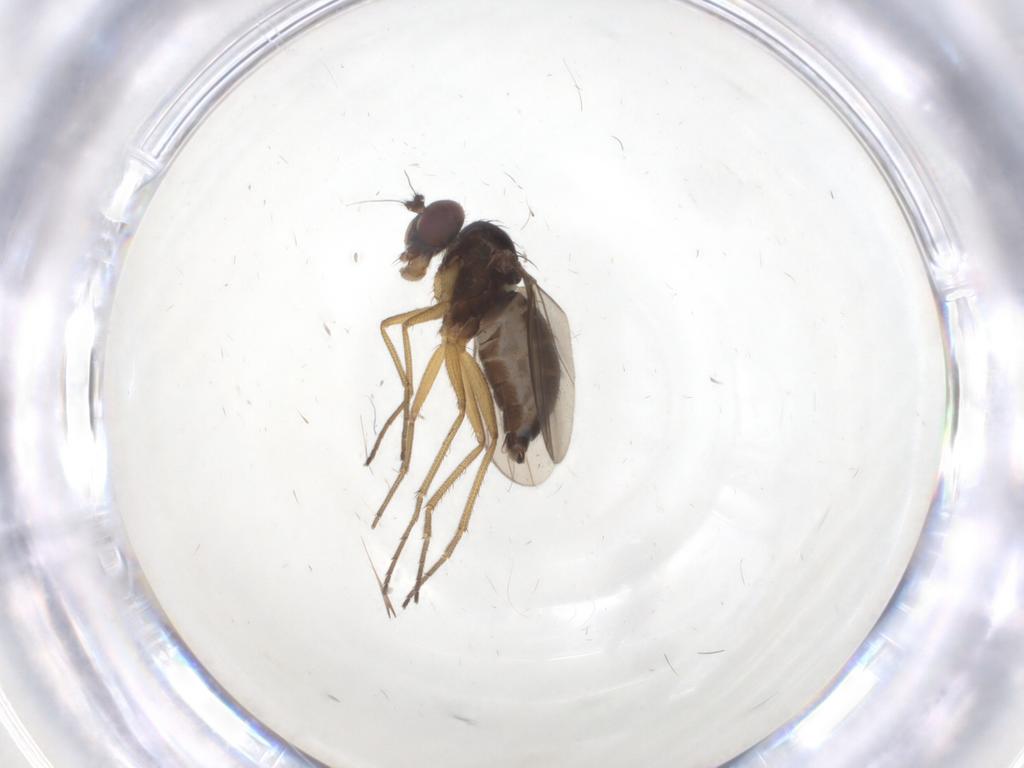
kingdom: Animalia
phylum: Arthropoda
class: Insecta
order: Diptera
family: Dolichopodidae
